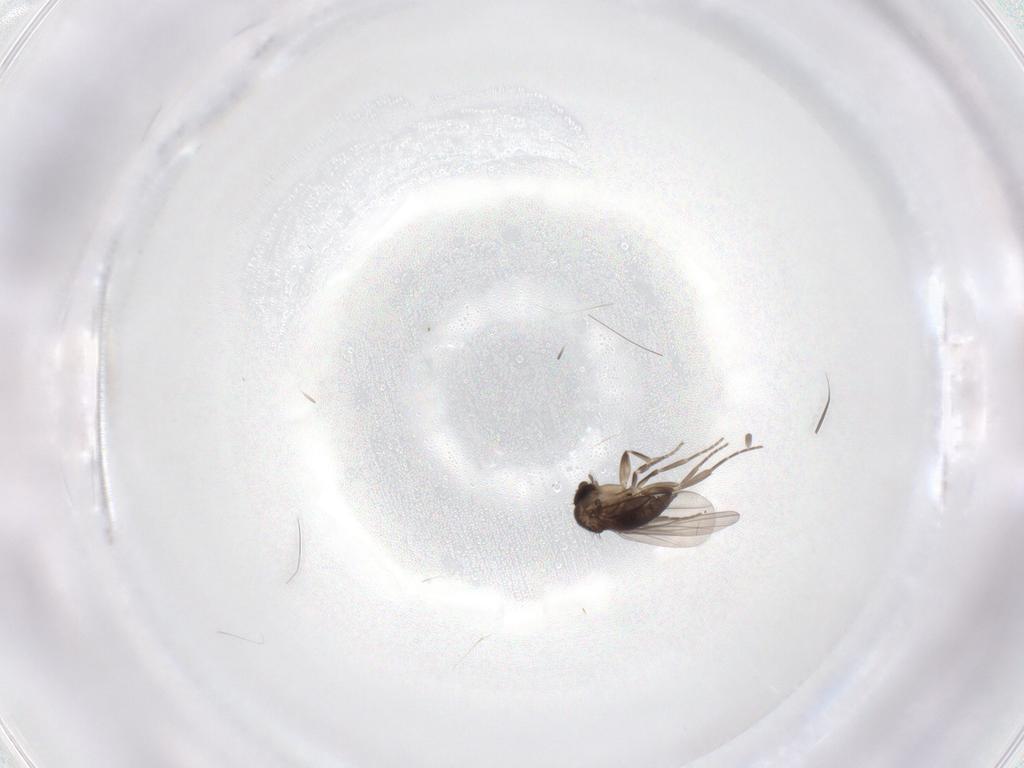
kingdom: Animalia
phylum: Arthropoda
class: Insecta
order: Diptera
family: Phoridae
